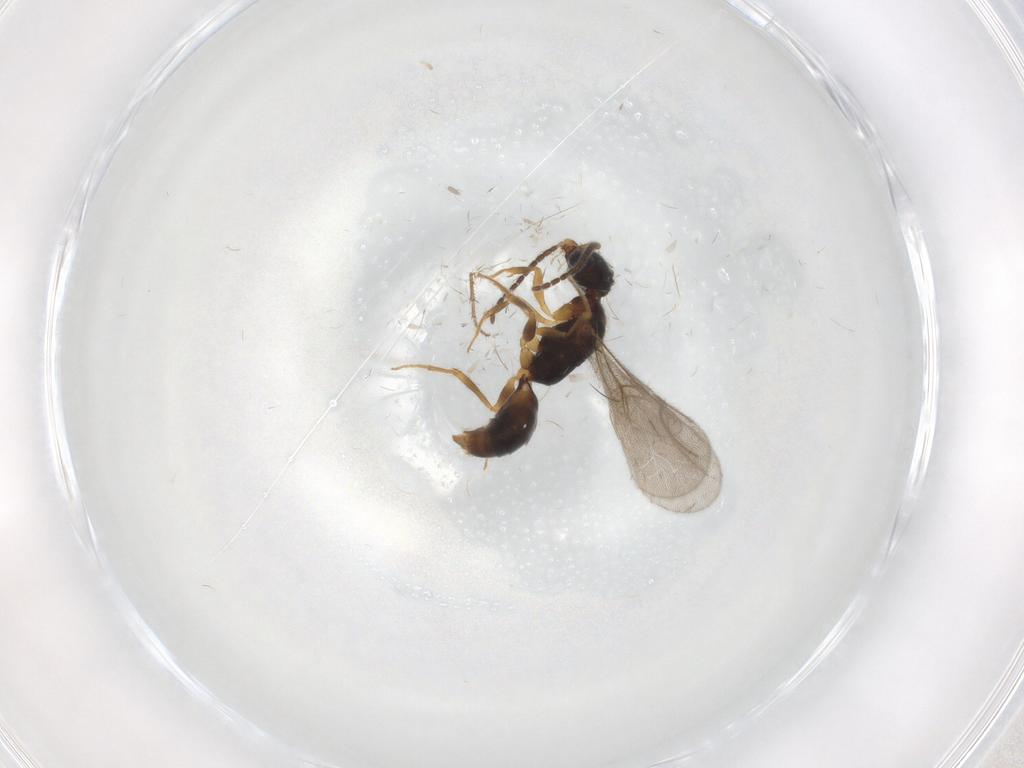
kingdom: Animalia
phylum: Arthropoda
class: Insecta
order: Hymenoptera
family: Bethylidae
